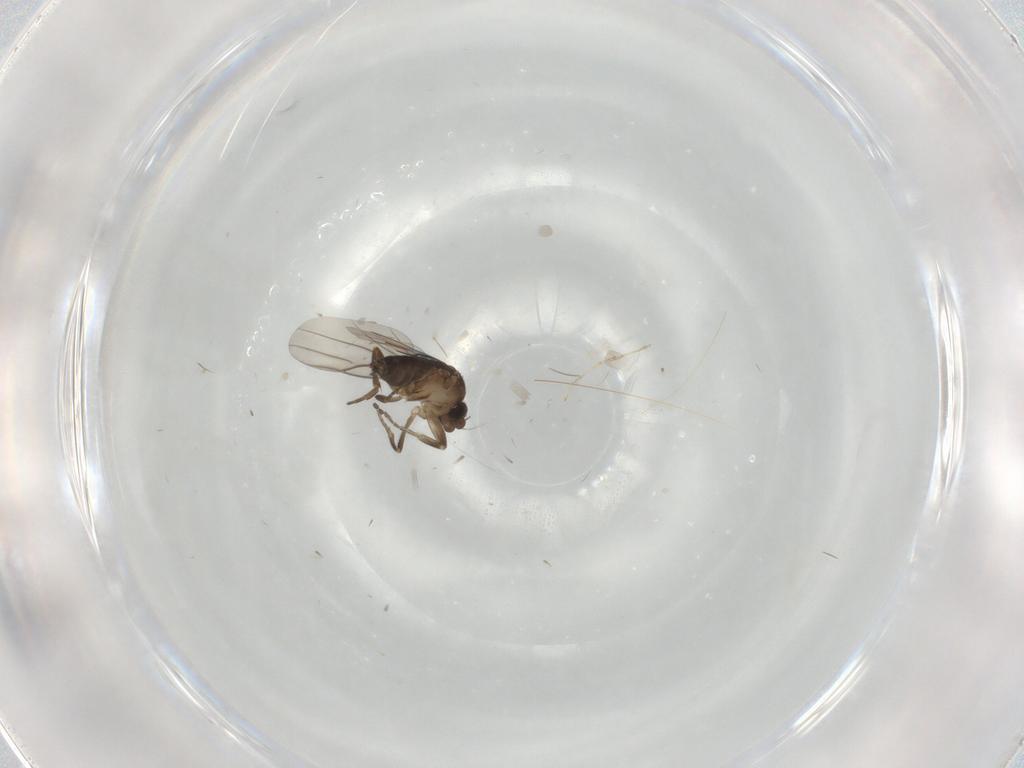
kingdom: Animalia
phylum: Arthropoda
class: Insecta
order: Diptera
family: Phoridae
